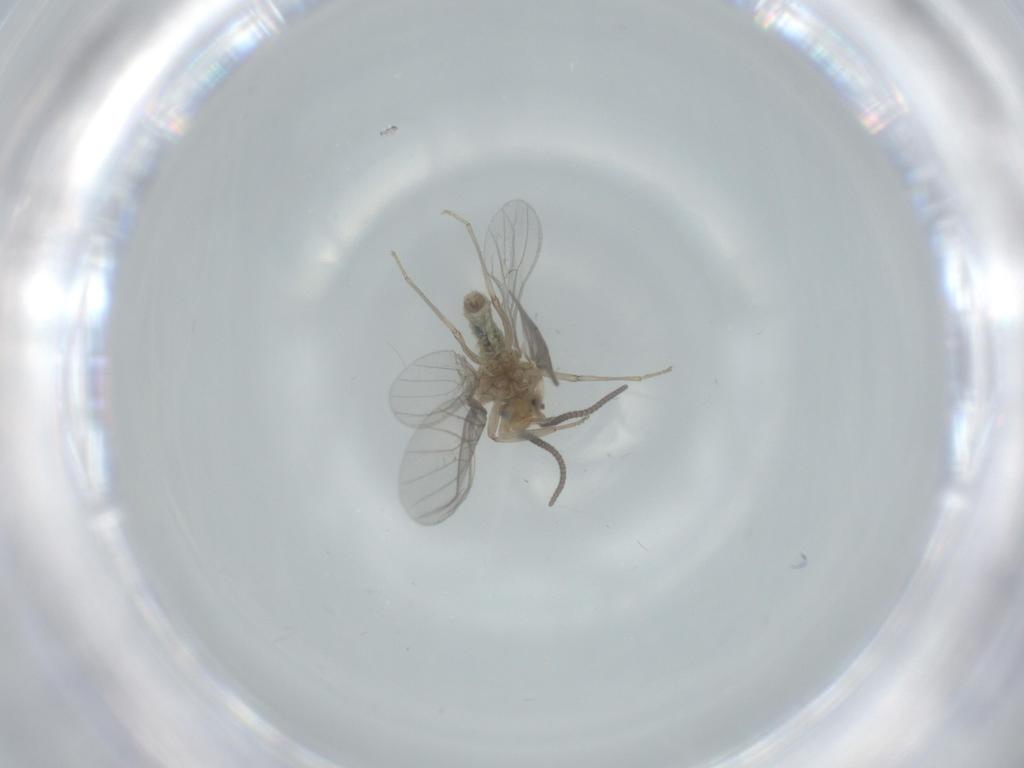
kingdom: Animalia
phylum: Arthropoda
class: Insecta
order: Neuroptera
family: Coniopterygidae
